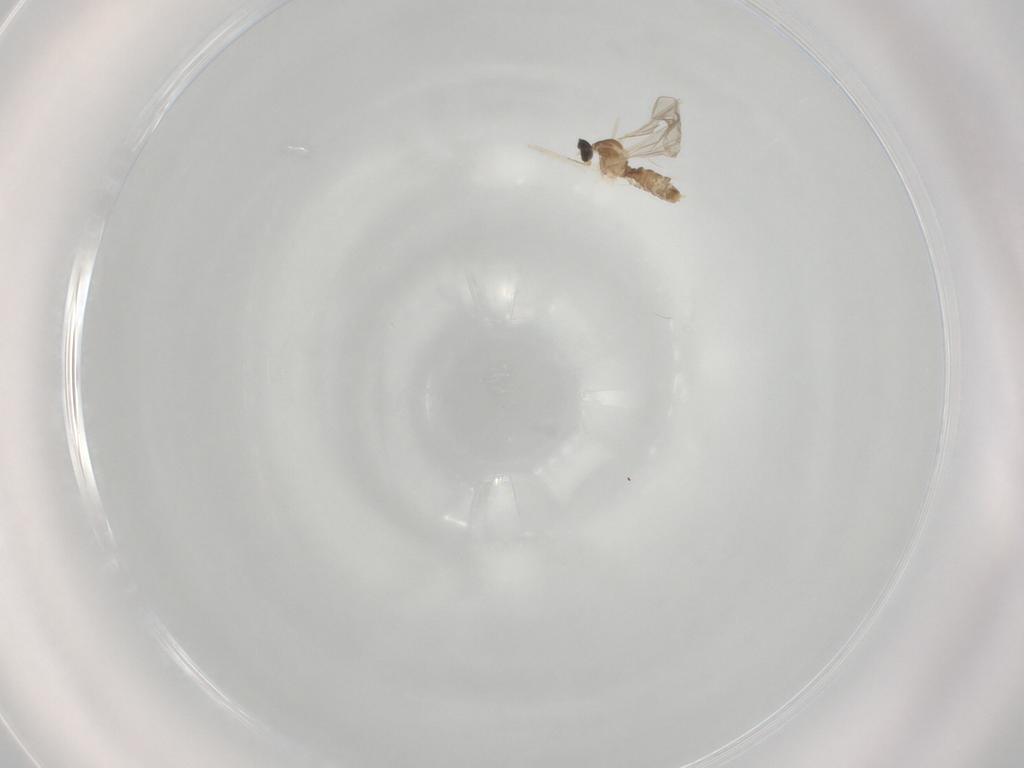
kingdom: Animalia
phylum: Arthropoda
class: Insecta
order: Diptera
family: Cecidomyiidae
